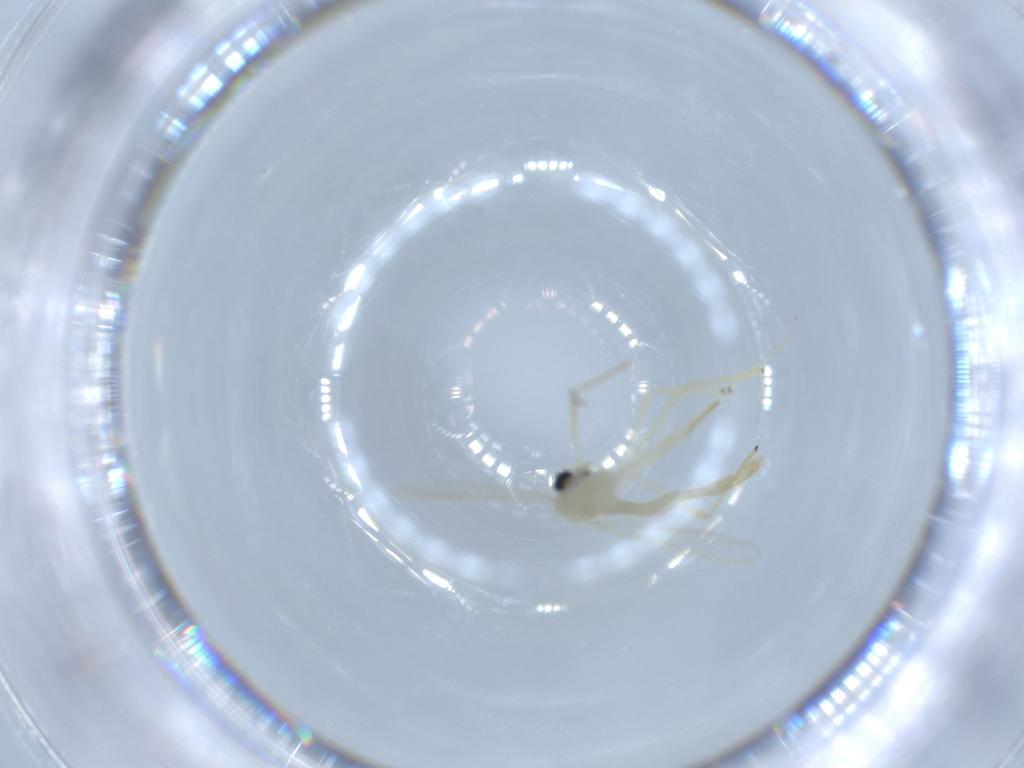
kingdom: Animalia
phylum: Arthropoda
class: Insecta
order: Diptera
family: Chironomidae
